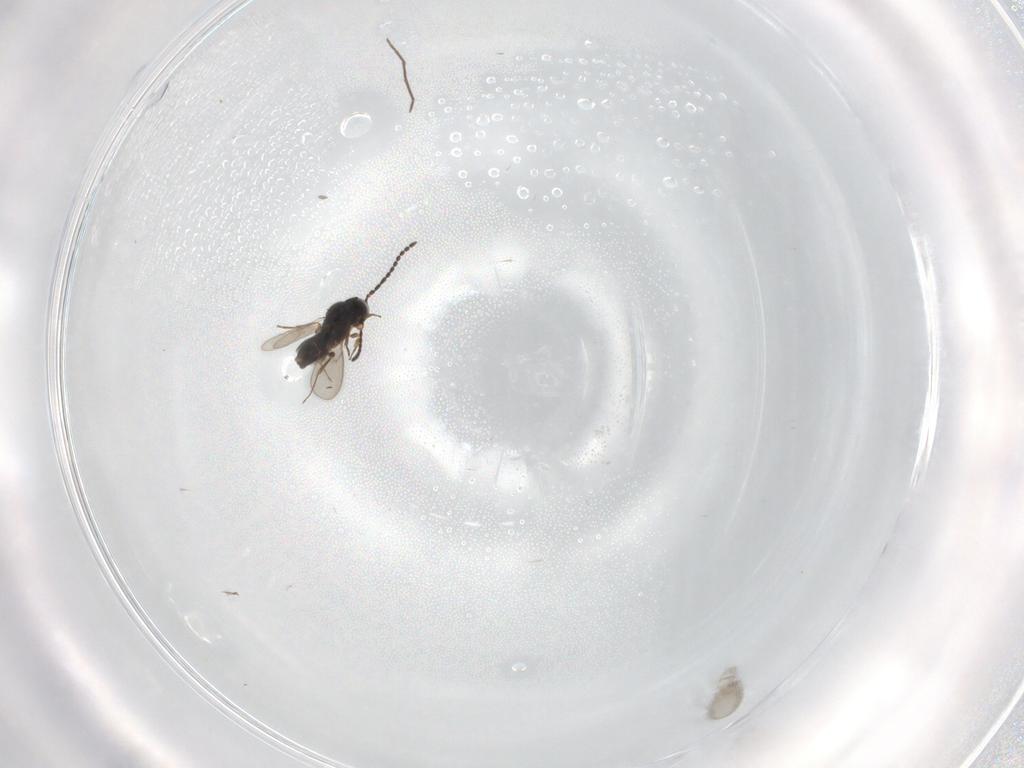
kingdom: Animalia
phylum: Arthropoda
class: Insecta
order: Hymenoptera
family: Scelionidae
